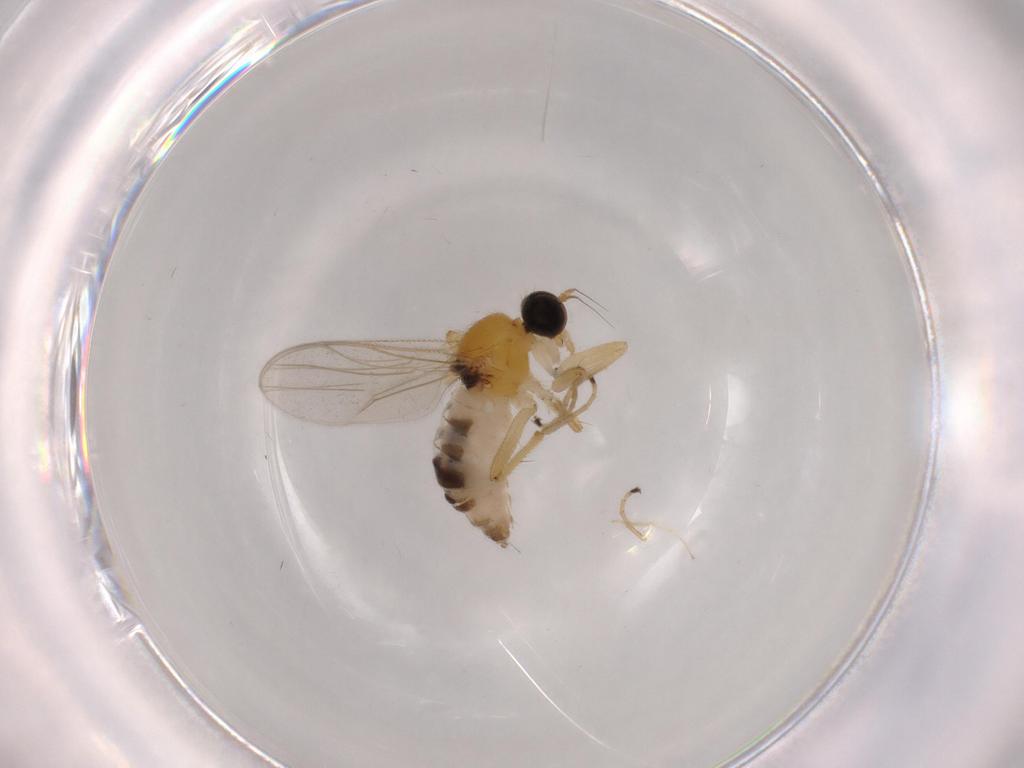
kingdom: Animalia
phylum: Arthropoda
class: Insecta
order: Diptera
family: Hybotidae
